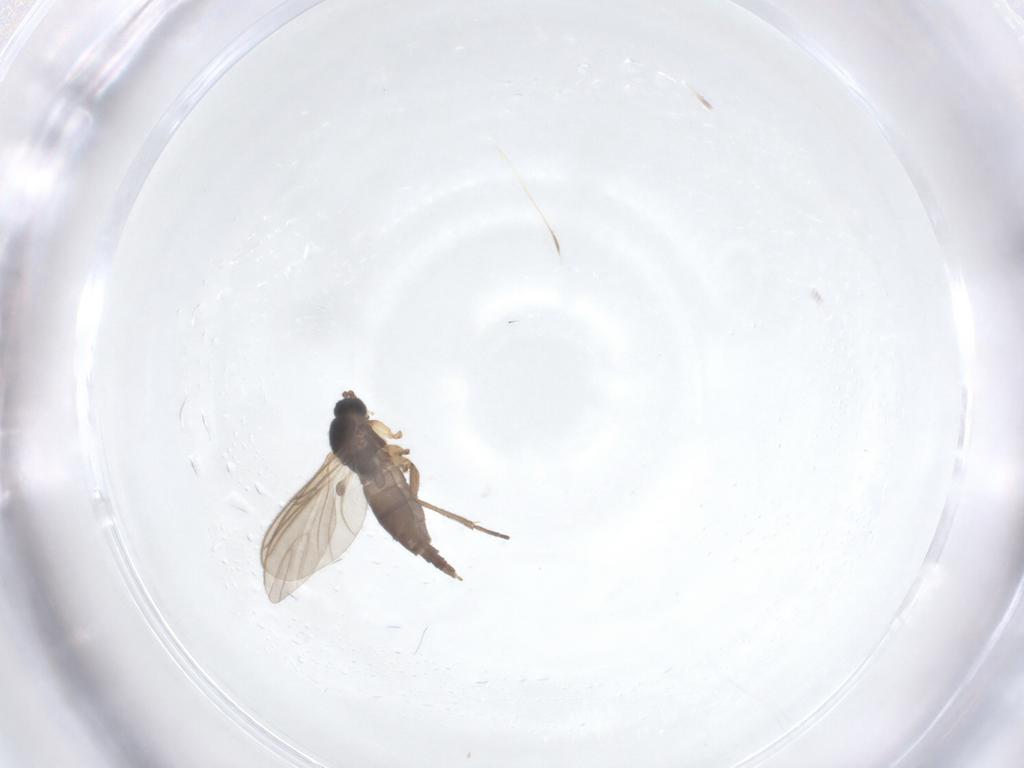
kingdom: Animalia
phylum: Arthropoda
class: Insecta
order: Diptera
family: Sciaridae
